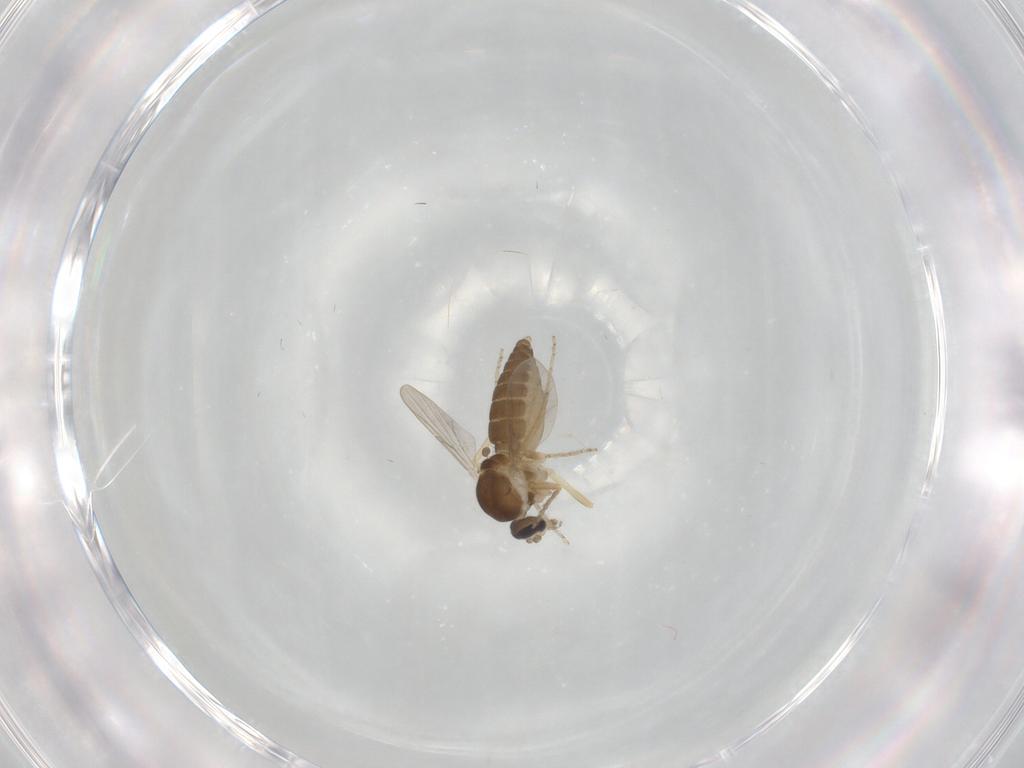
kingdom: Animalia
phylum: Arthropoda
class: Insecta
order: Diptera
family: Ceratopogonidae
